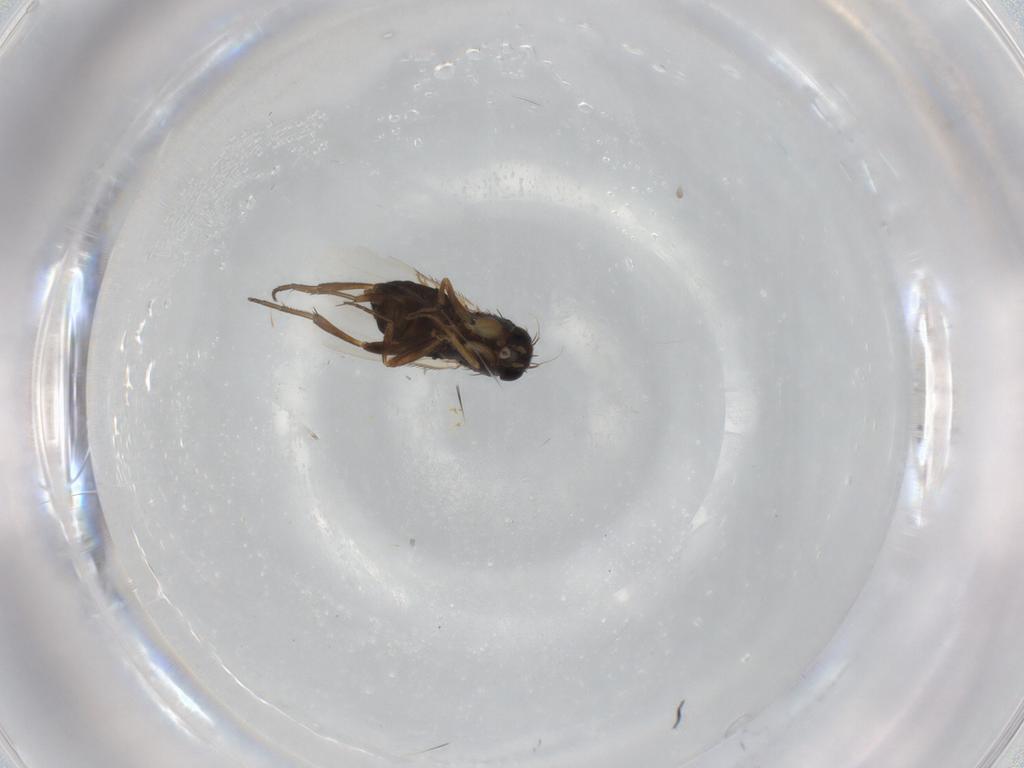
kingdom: Animalia
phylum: Arthropoda
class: Insecta
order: Diptera
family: Phoridae
